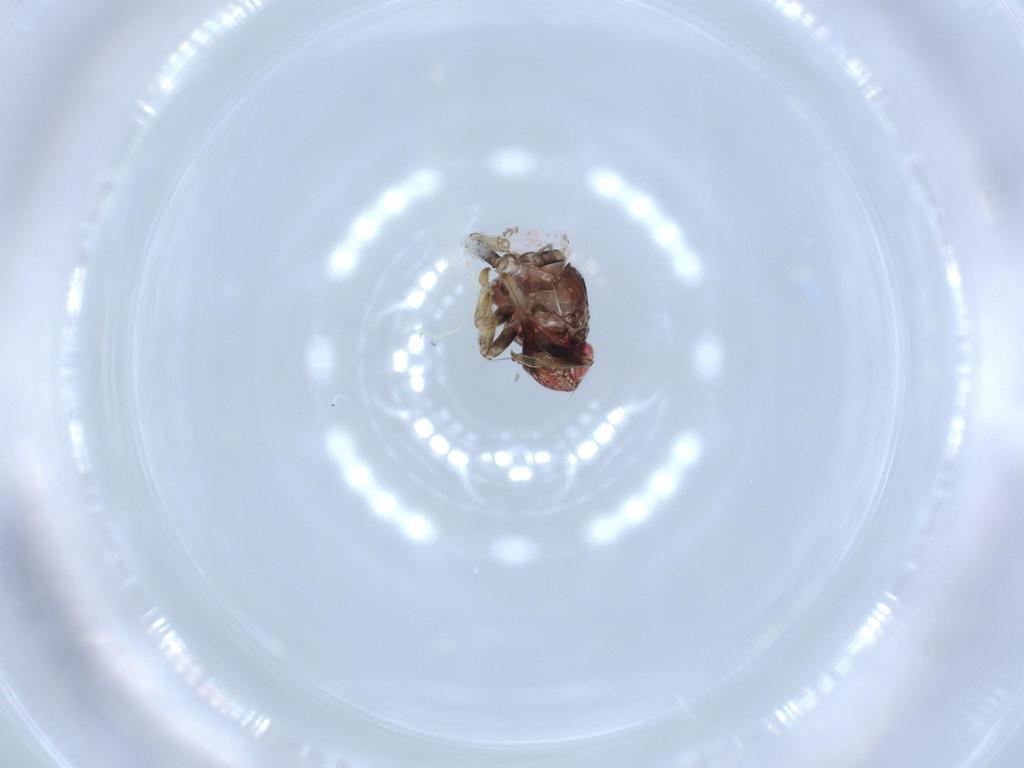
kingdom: Animalia
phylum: Arthropoda
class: Insecta
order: Hemiptera
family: Issidae
